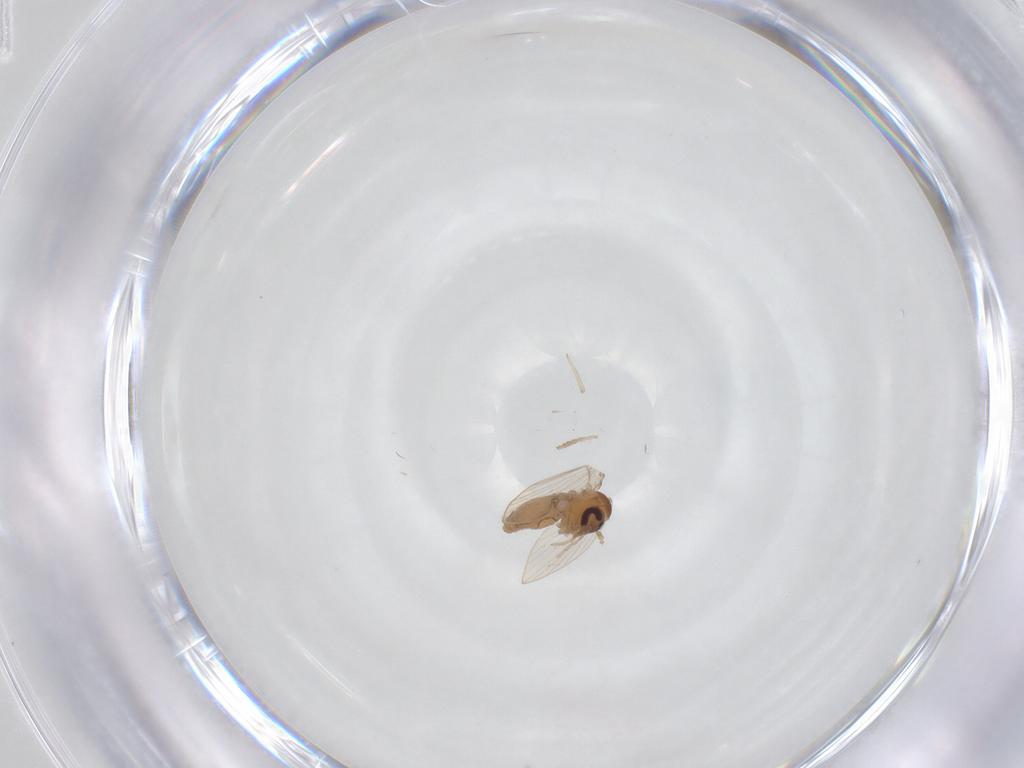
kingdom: Animalia
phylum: Arthropoda
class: Insecta
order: Diptera
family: Psychodidae
